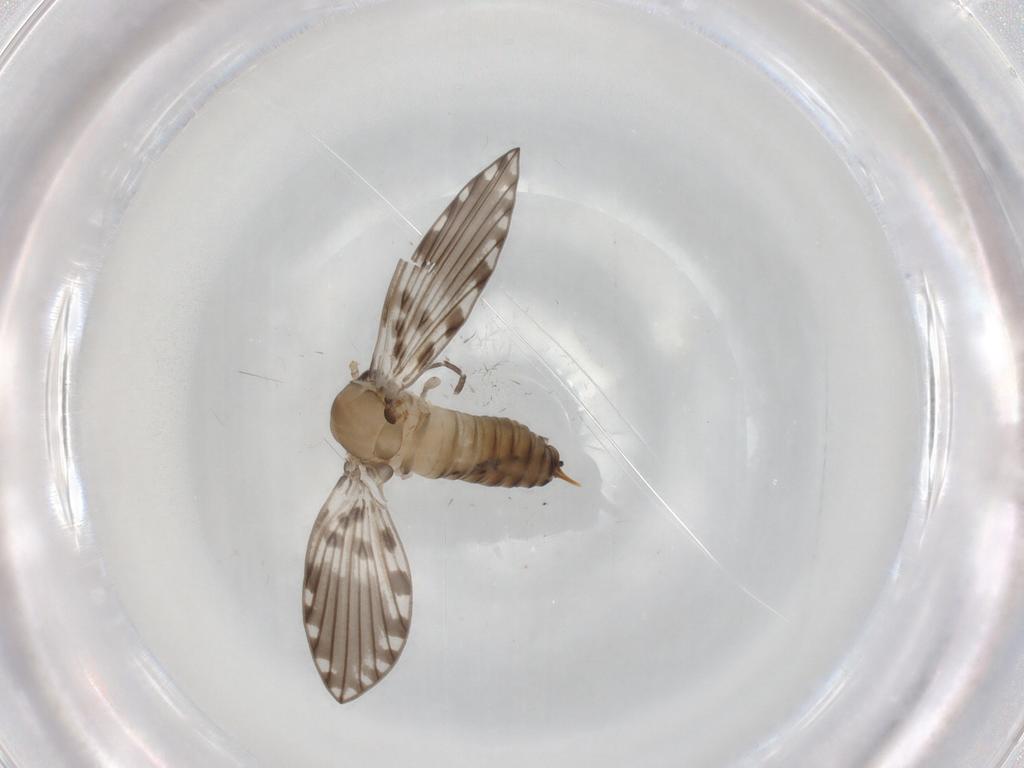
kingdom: Animalia
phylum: Arthropoda
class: Insecta
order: Diptera
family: Psychodidae
